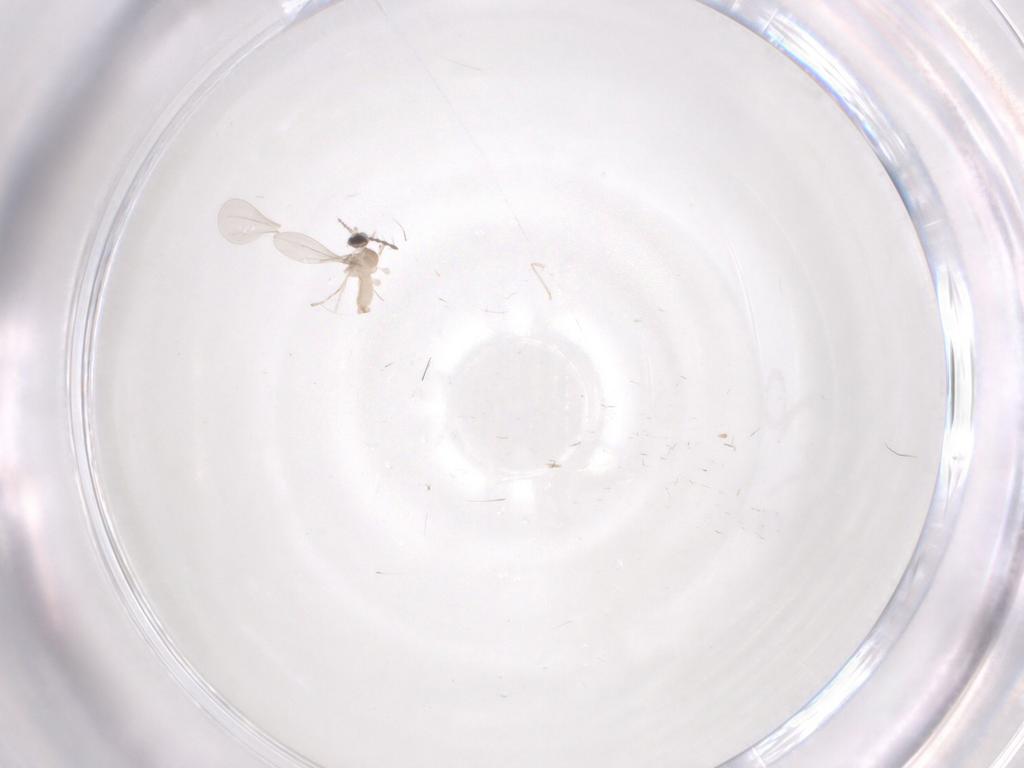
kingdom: Animalia
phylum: Arthropoda
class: Insecta
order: Diptera
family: Limoniidae
